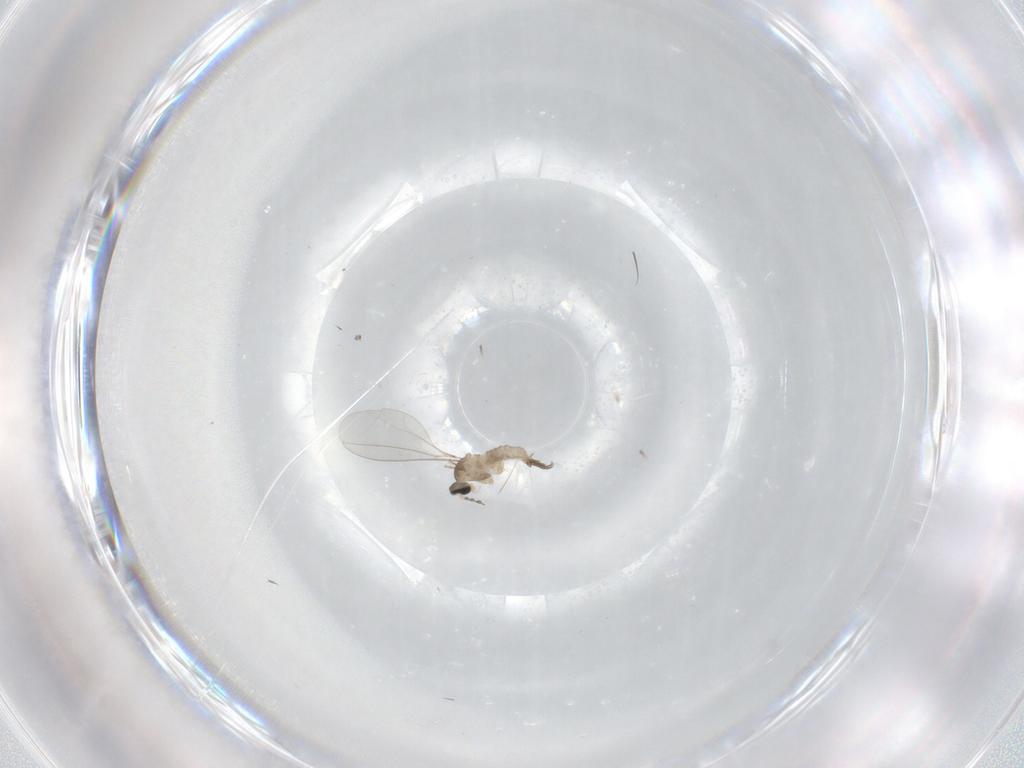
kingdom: Animalia
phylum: Arthropoda
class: Insecta
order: Diptera
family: Cecidomyiidae
